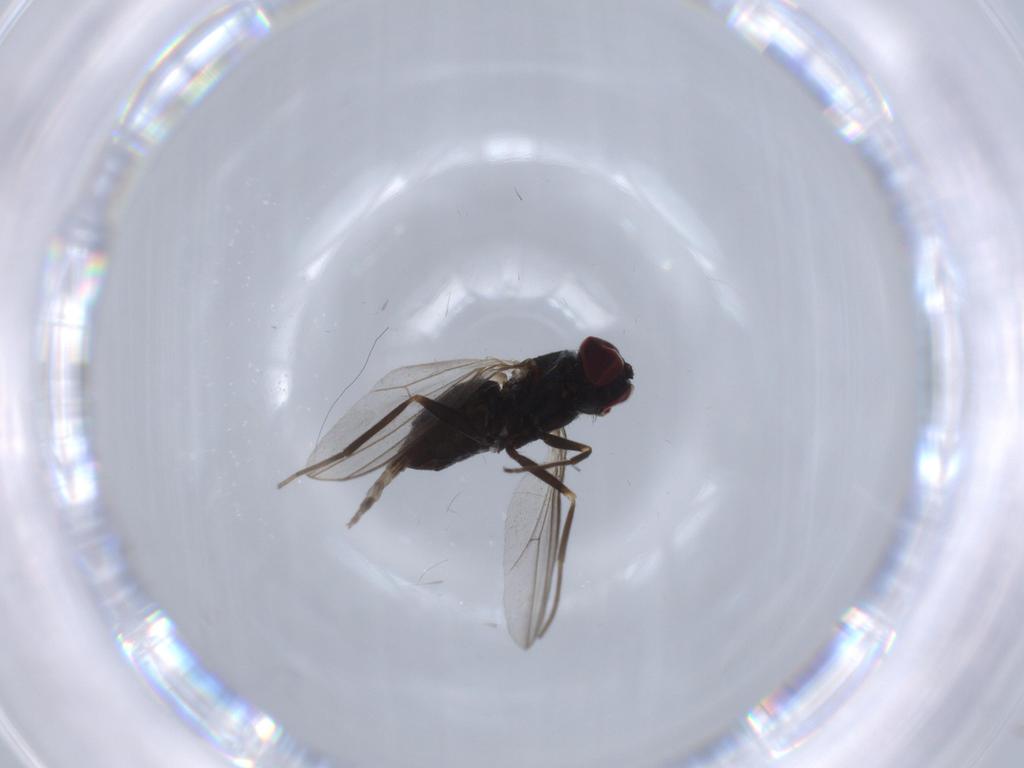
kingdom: Animalia
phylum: Arthropoda
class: Insecta
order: Diptera
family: Dolichopodidae
